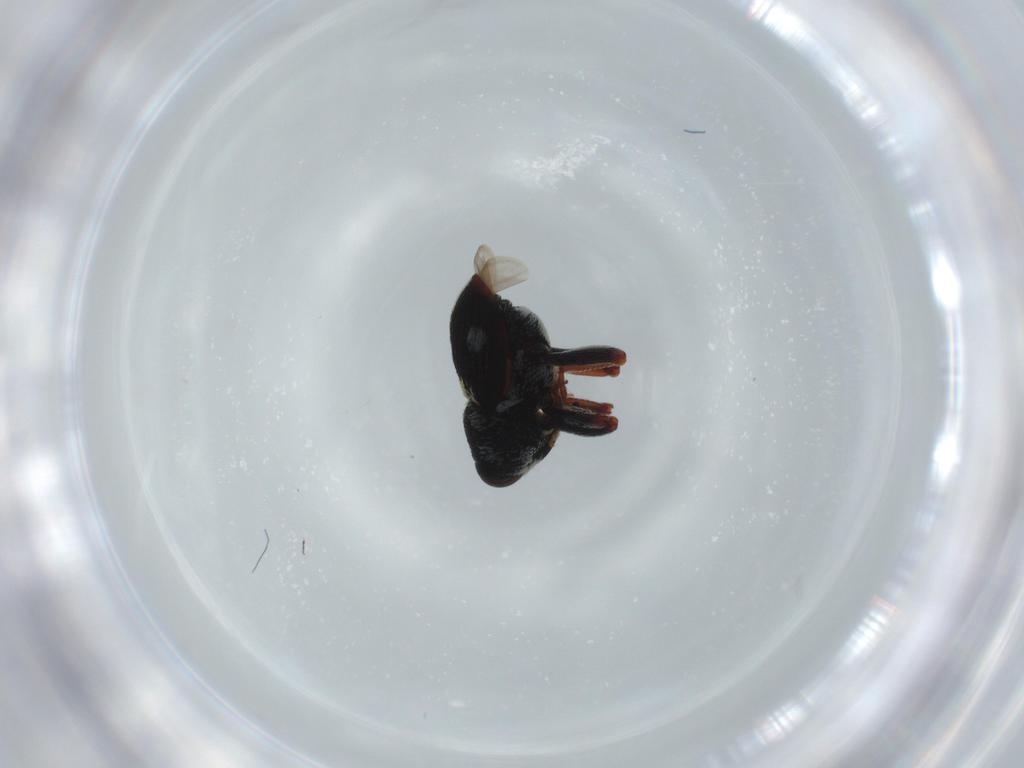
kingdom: Animalia
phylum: Arthropoda
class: Insecta
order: Coleoptera
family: Curculionidae
